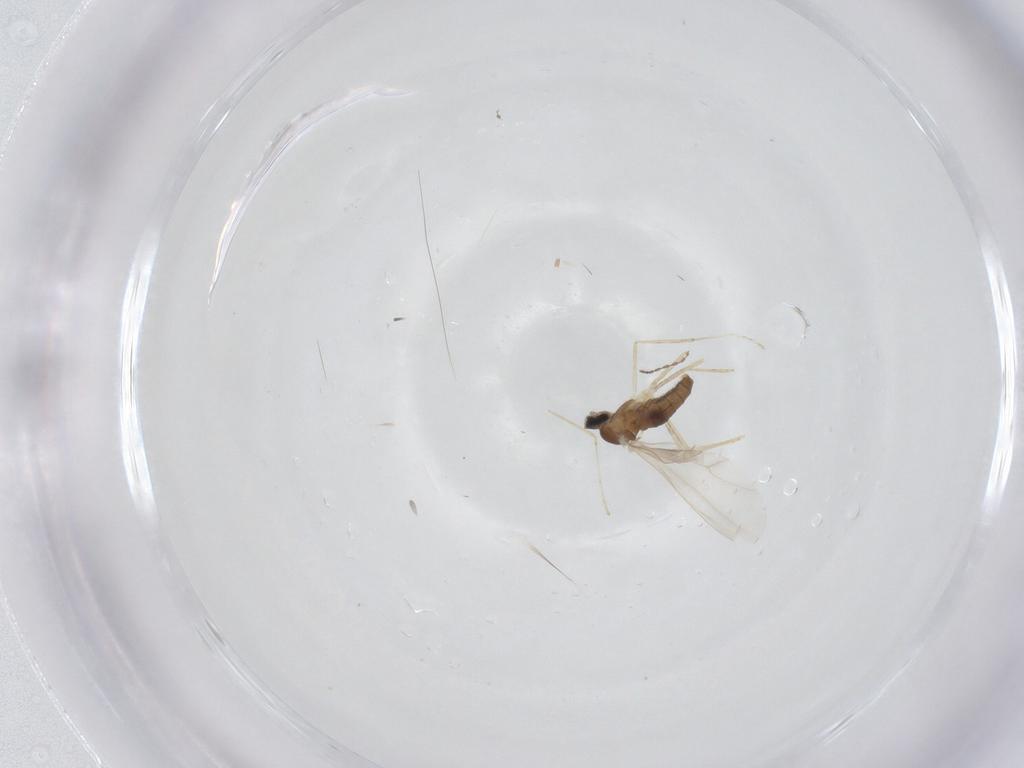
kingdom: Animalia
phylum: Arthropoda
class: Insecta
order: Diptera
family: Cecidomyiidae
